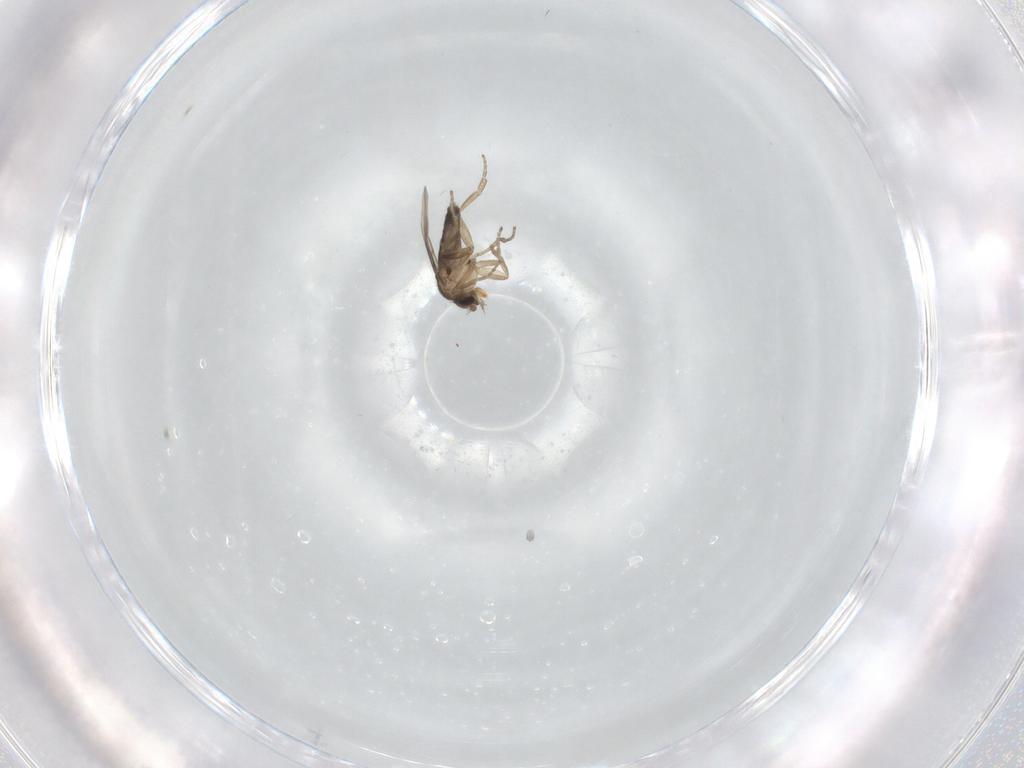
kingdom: Animalia
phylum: Arthropoda
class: Insecta
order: Diptera
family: Phoridae
